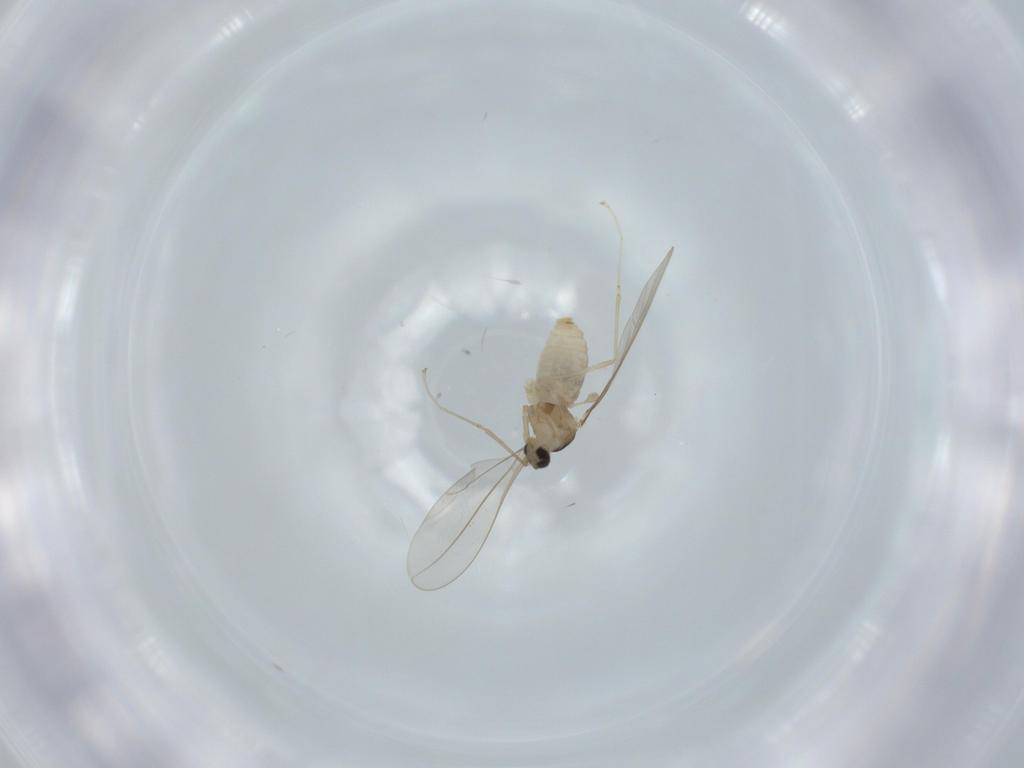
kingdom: Animalia
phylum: Arthropoda
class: Insecta
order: Diptera
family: Cecidomyiidae
